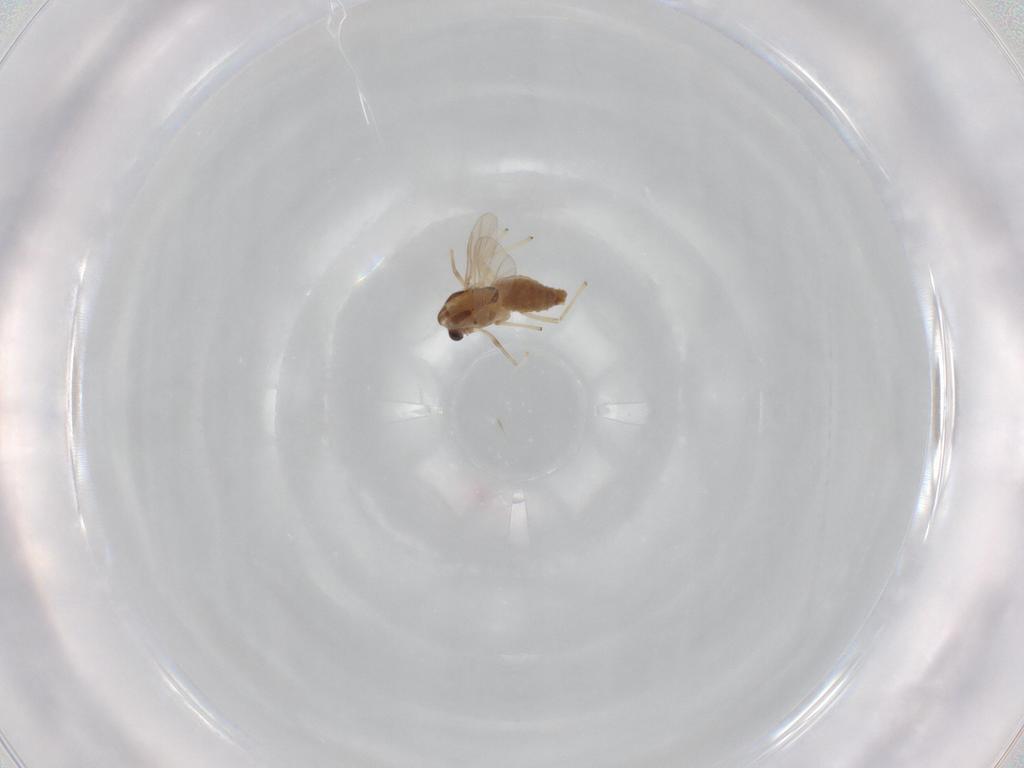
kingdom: Animalia
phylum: Arthropoda
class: Insecta
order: Diptera
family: Chironomidae
